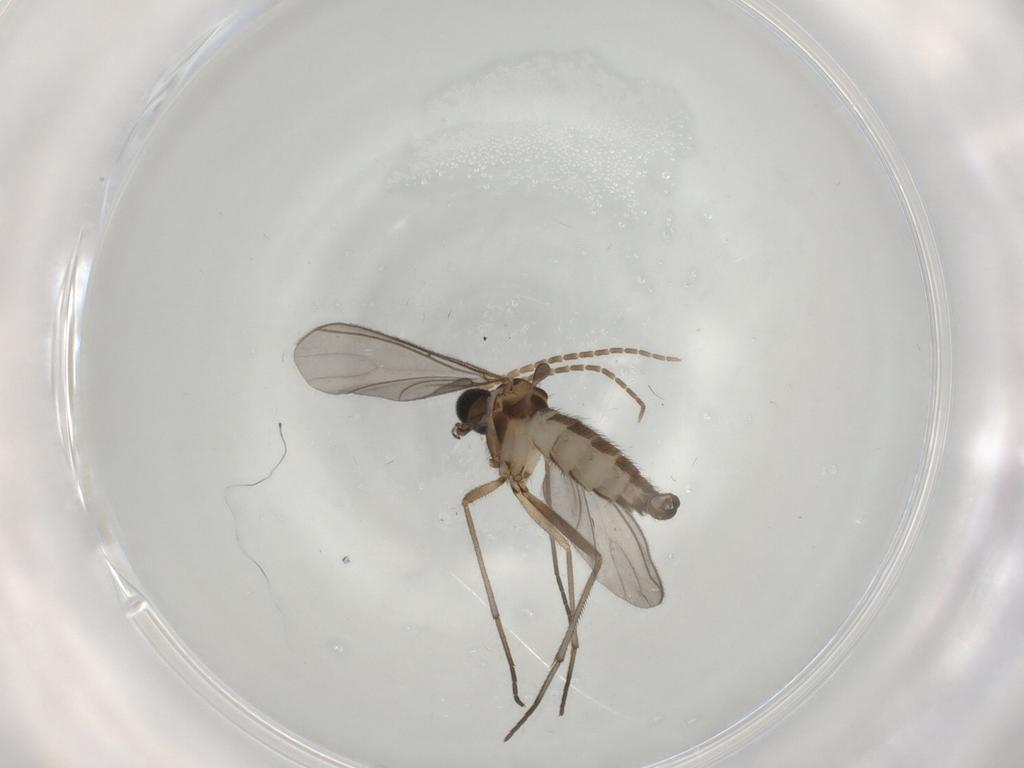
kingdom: Animalia
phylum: Arthropoda
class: Insecta
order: Diptera
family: Sciaridae
